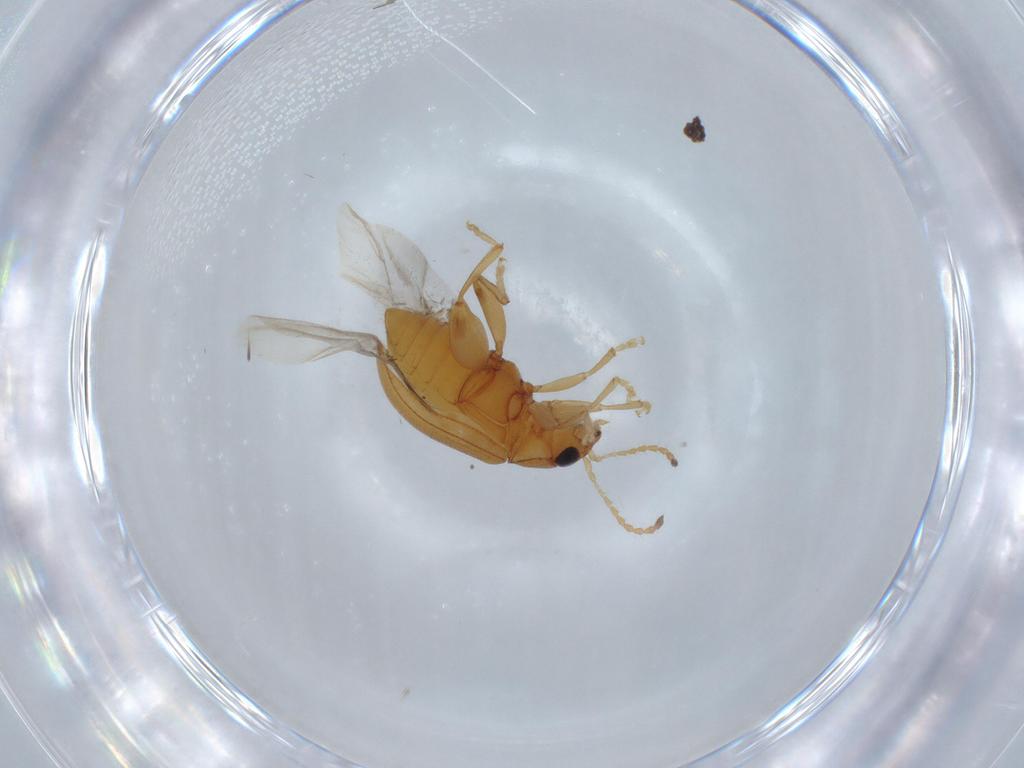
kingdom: Animalia
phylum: Arthropoda
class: Insecta
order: Coleoptera
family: Chrysomelidae
